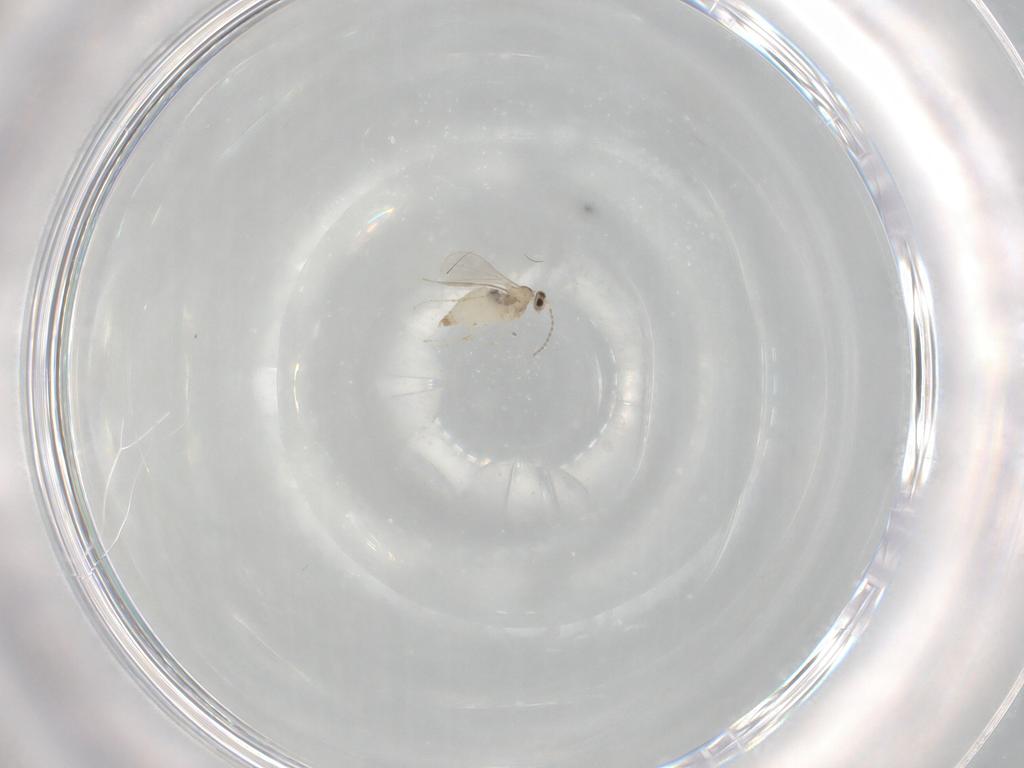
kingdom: Animalia
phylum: Arthropoda
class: Insecta
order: Diptera
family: Cecidomyiidae
